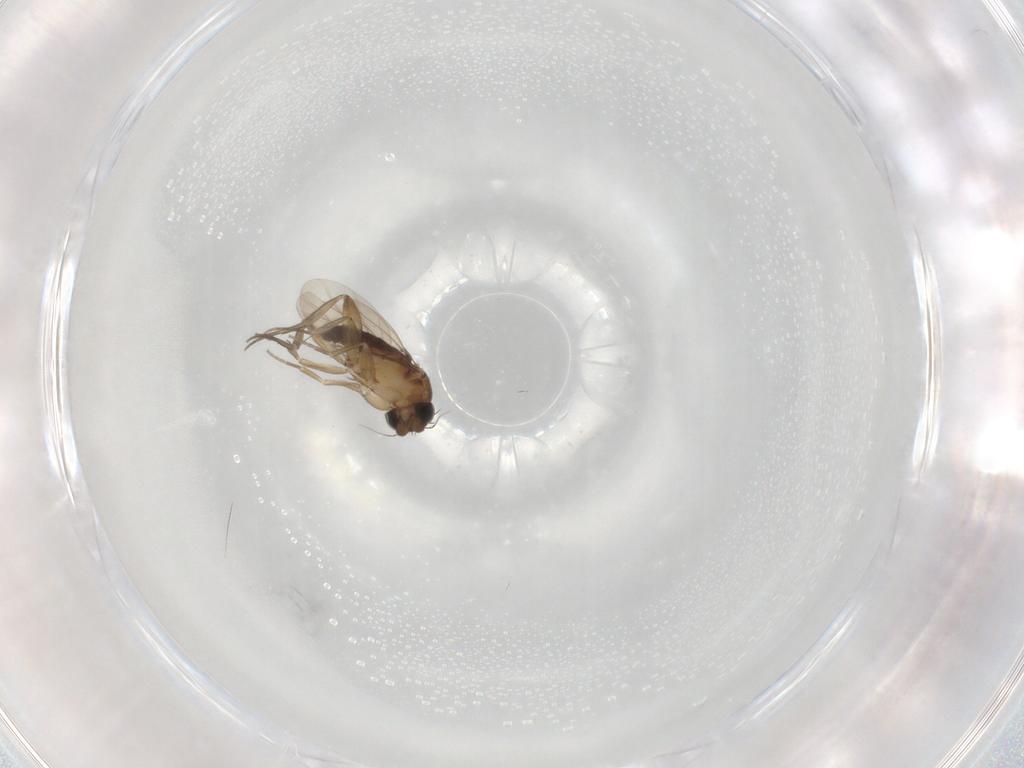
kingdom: Animalia
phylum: Arthropoda
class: Insecta
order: Diptera
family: Phoridae
